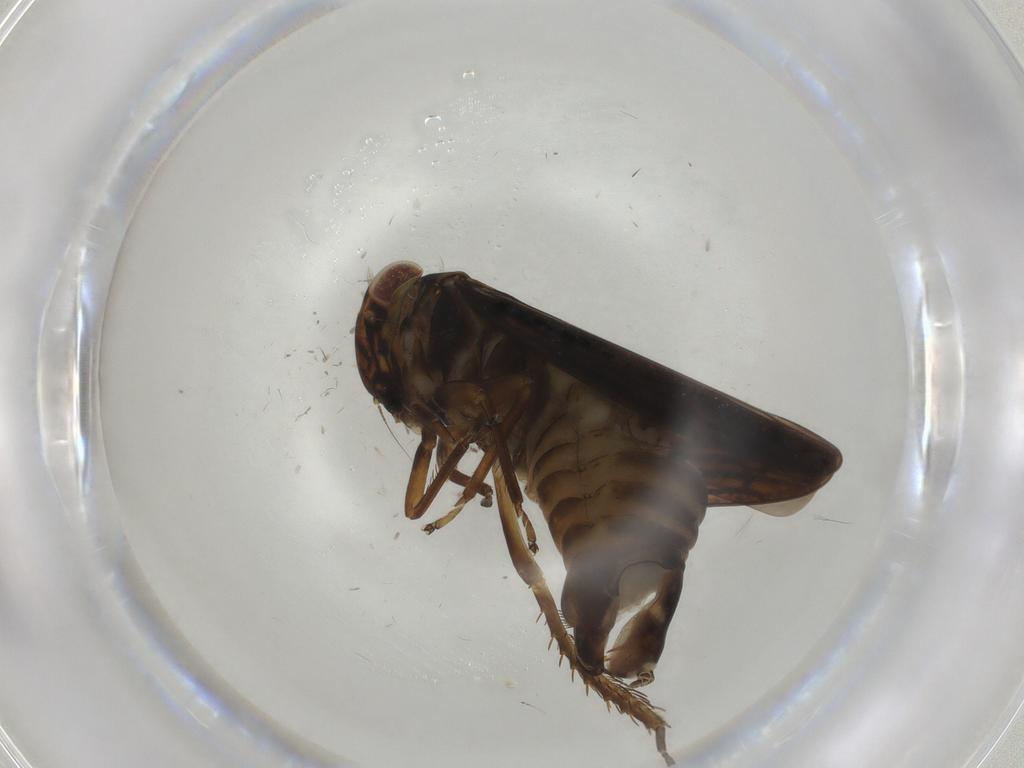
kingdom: Animalia
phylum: Arthropoda
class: Insecta
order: Hemiptera
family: Cicadellidae
